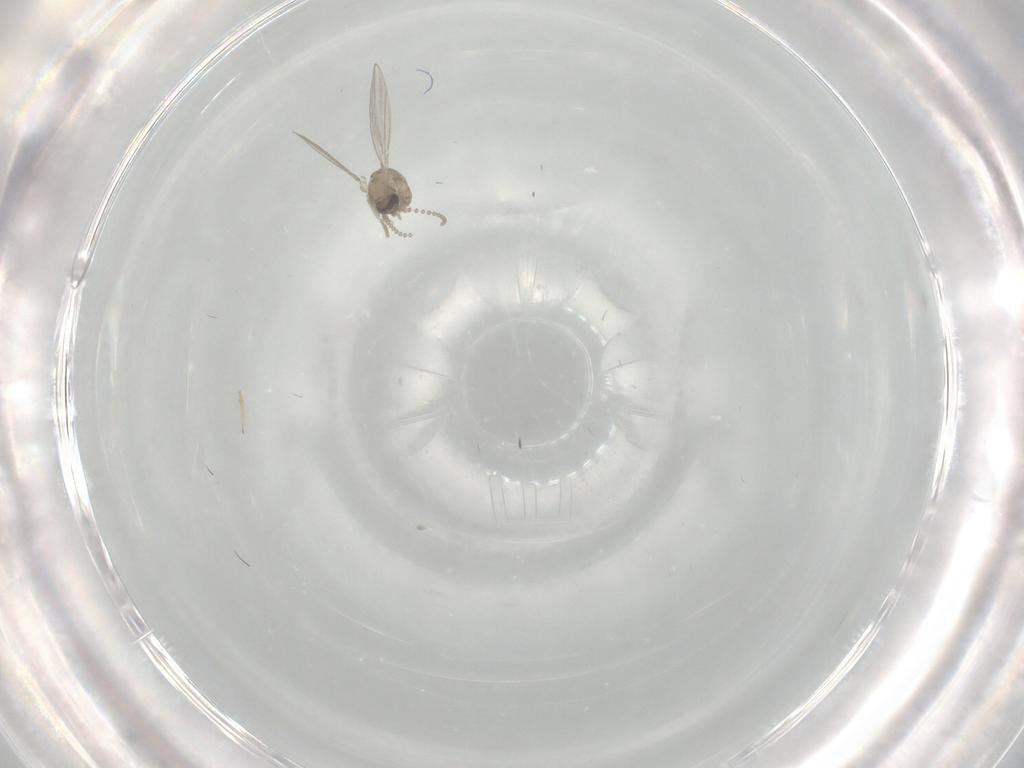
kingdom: Animalia
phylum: Arthropoda
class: Insecta
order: Diptera
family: Psychodidae
